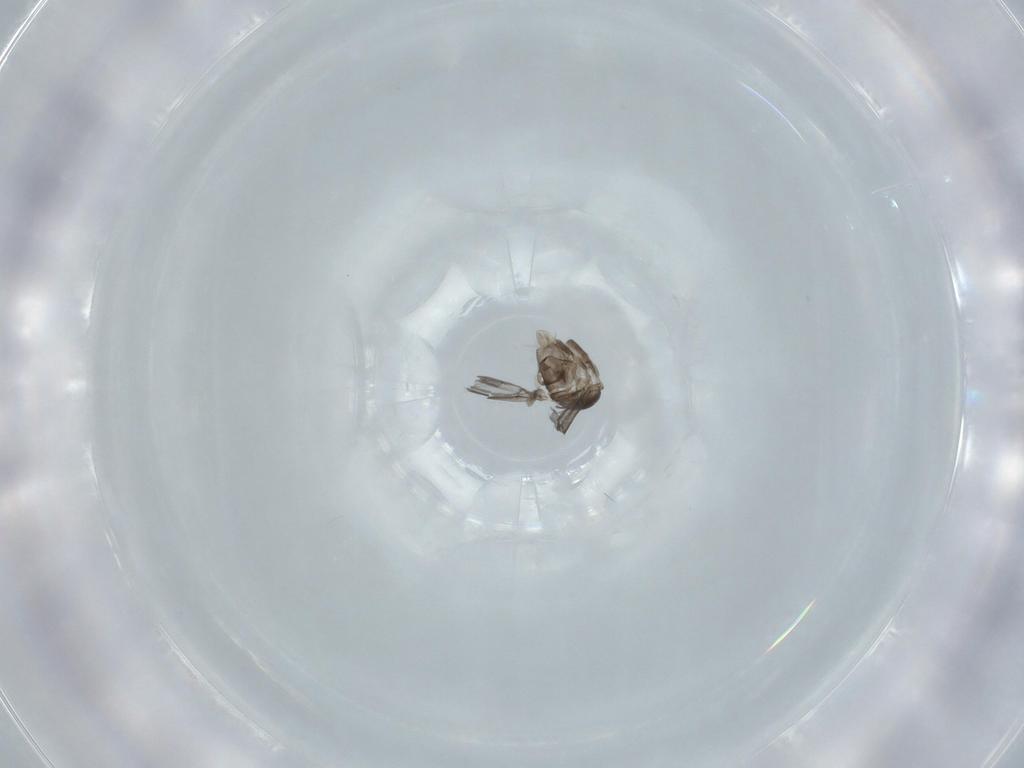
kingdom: Animalia
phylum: Arthropoda
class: Insecta
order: Diptera
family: Cecidomyiidae
